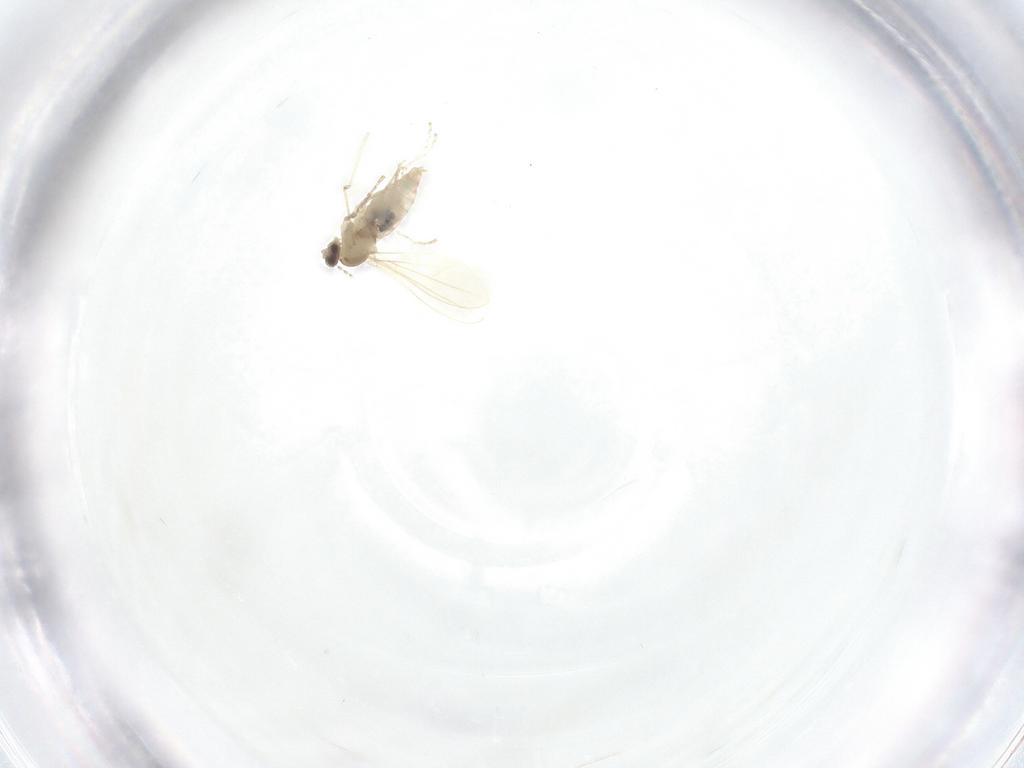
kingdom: Animalia
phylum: Arthropoda
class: Insecta
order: Diptera
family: Cecidomyiidae
